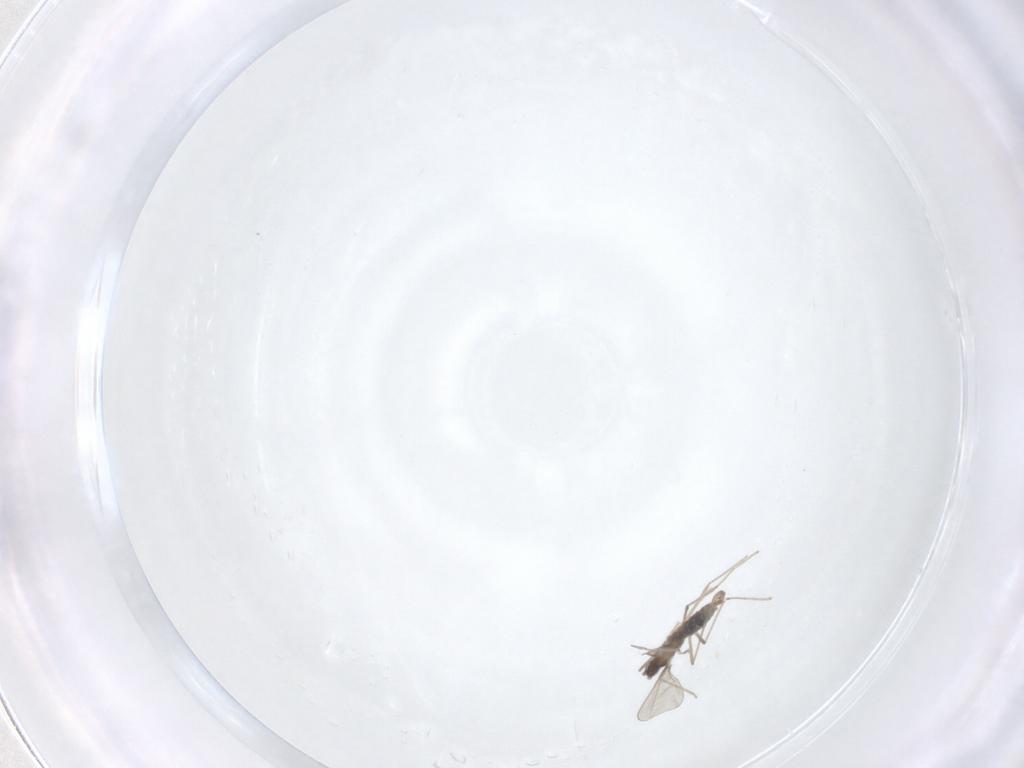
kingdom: Animalia
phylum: Arthropoda
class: Insecta
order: Diptera
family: Cecidomyiidae
